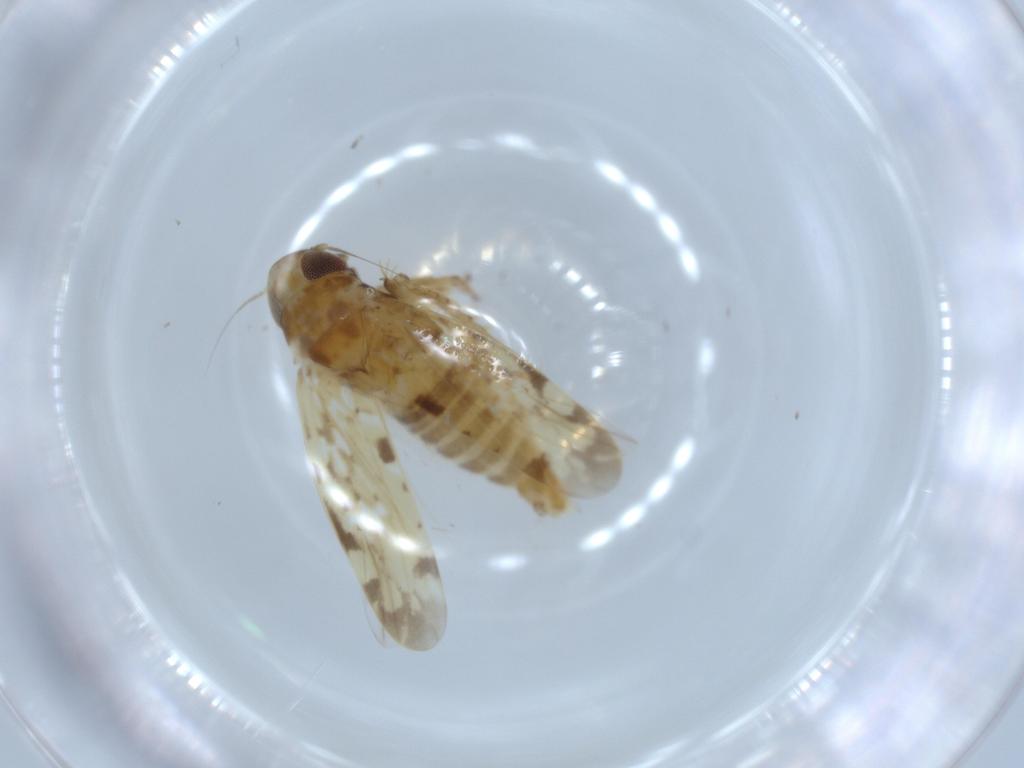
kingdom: Animalia
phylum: Arthropoda
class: Insecta
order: Hemiptera
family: Cicadellidae
